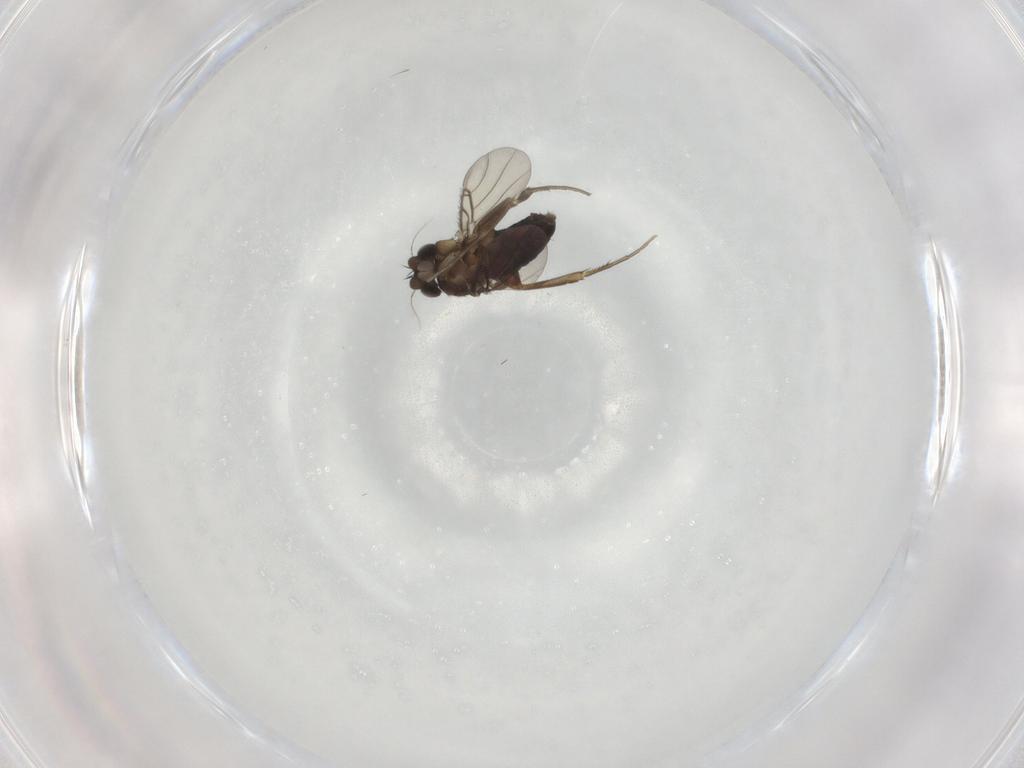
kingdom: Animalia
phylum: Arthropoda
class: Insecta
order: Diptera
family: Phoridae
